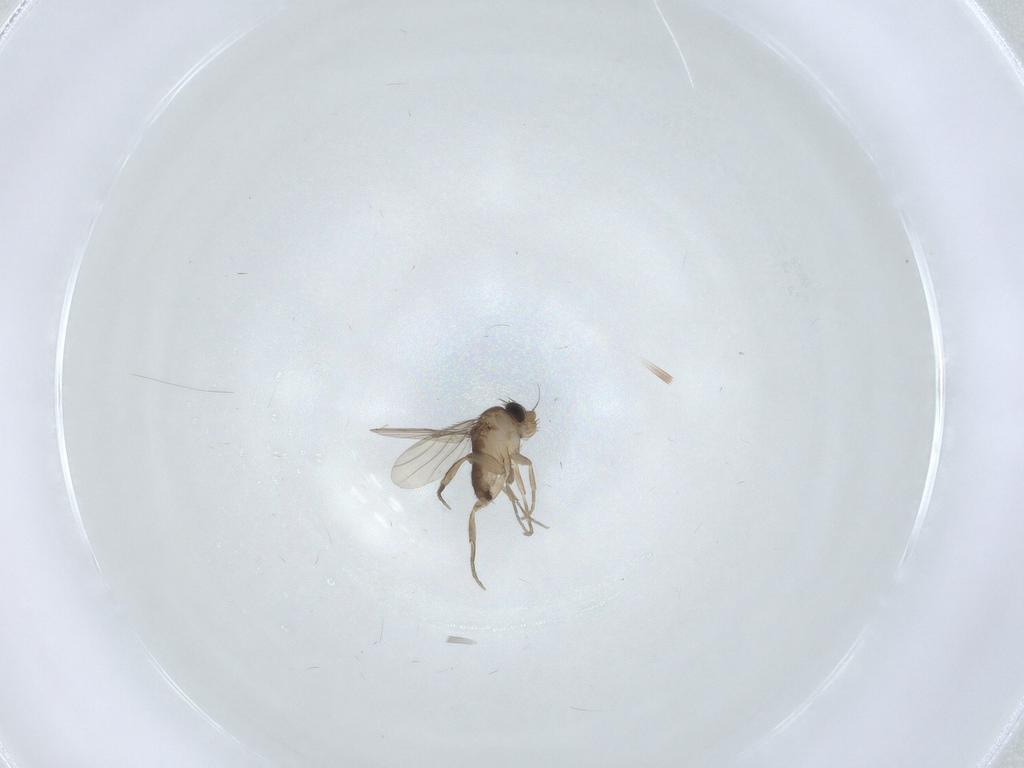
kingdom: Animalia
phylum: Arthropoda
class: Insecta
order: Diptera
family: Phoridae
